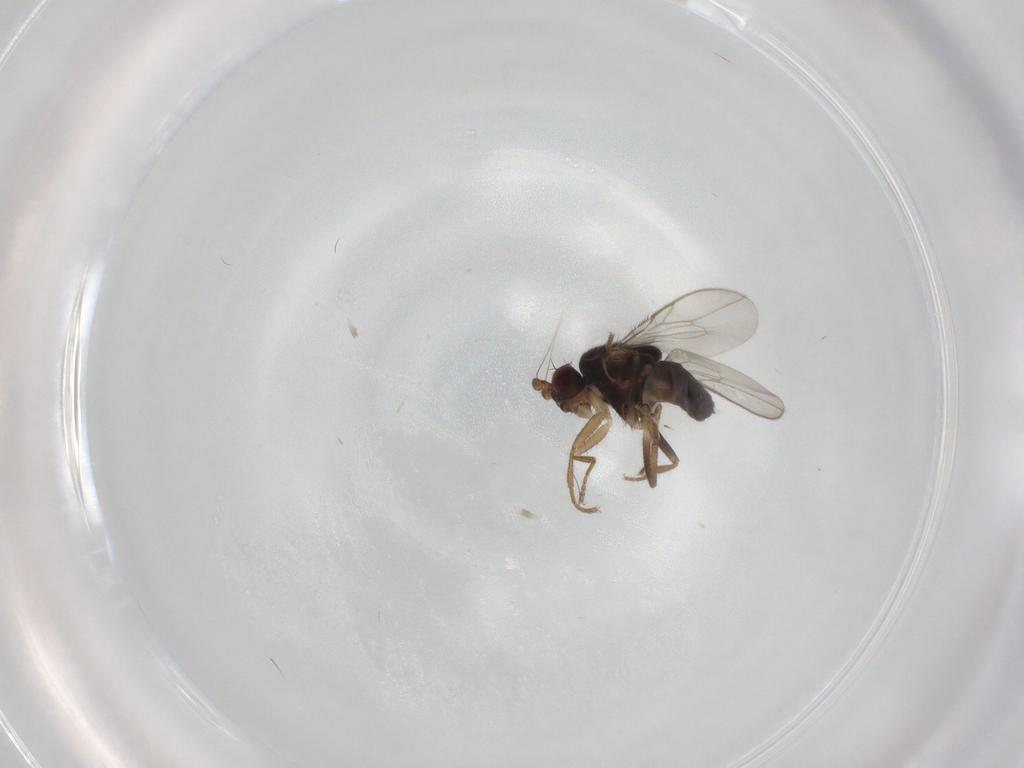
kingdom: Animalia
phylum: Arthropoda
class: Insecta
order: Diptera
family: Sphaeroceridae
